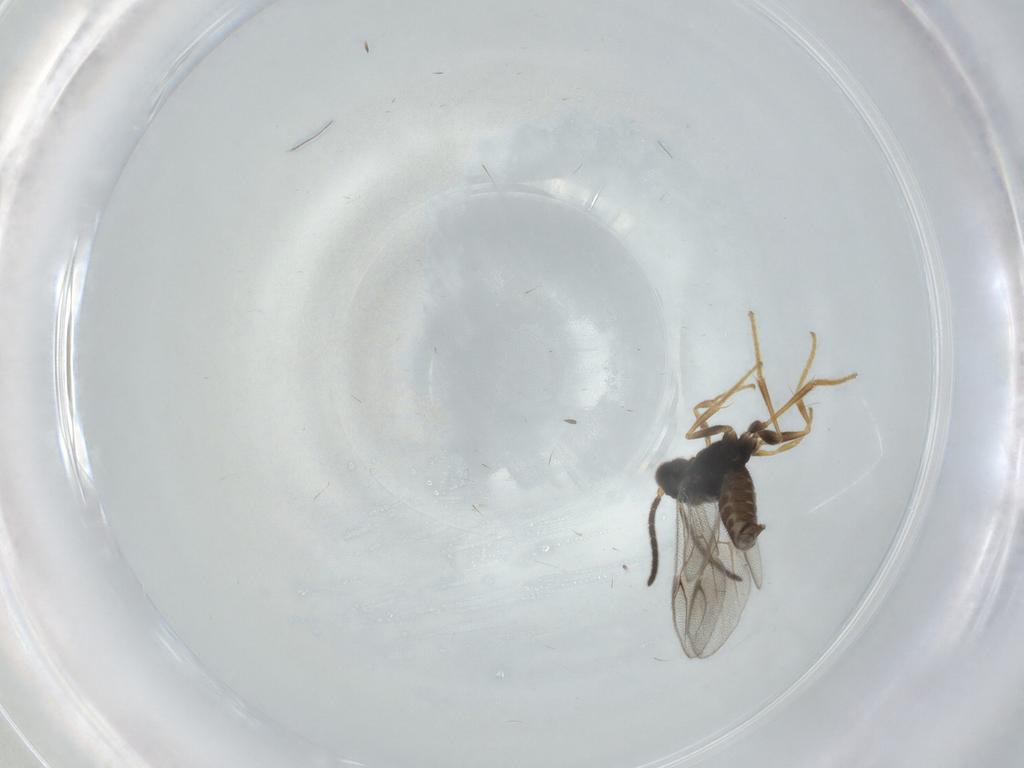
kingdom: Animalia
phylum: Arthropoda
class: Insecta
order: Hymenoptera
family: Dryinidae
